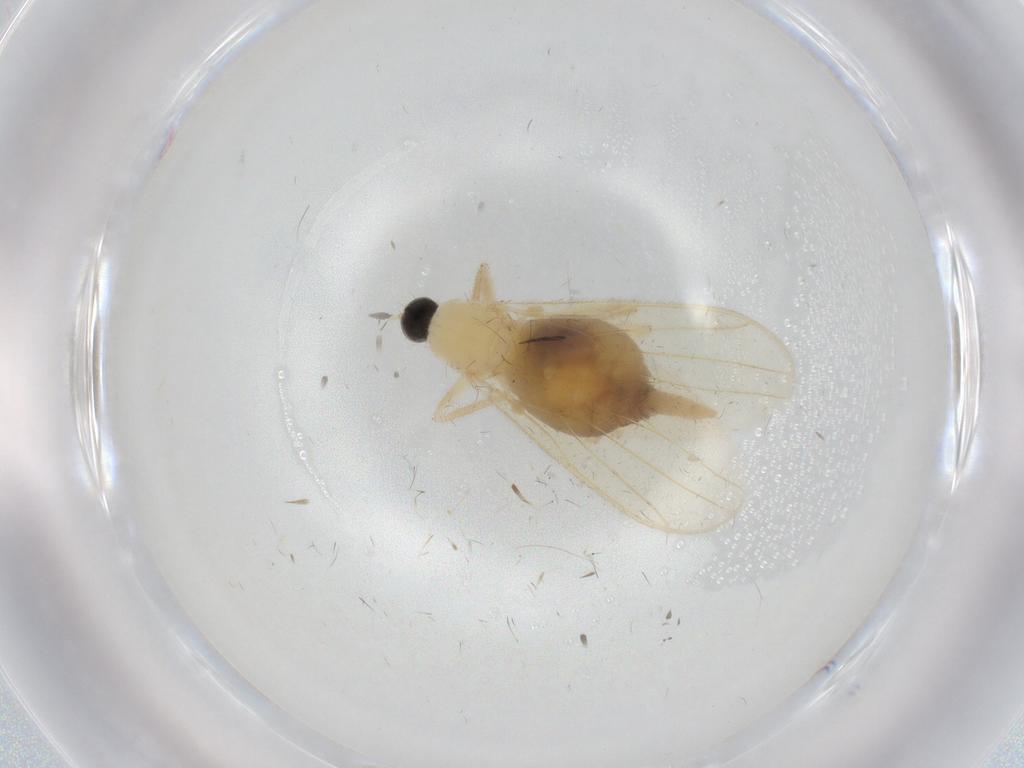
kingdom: Animalia
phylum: Arthropoda
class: Insecta
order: Diptera
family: Hybotidae
